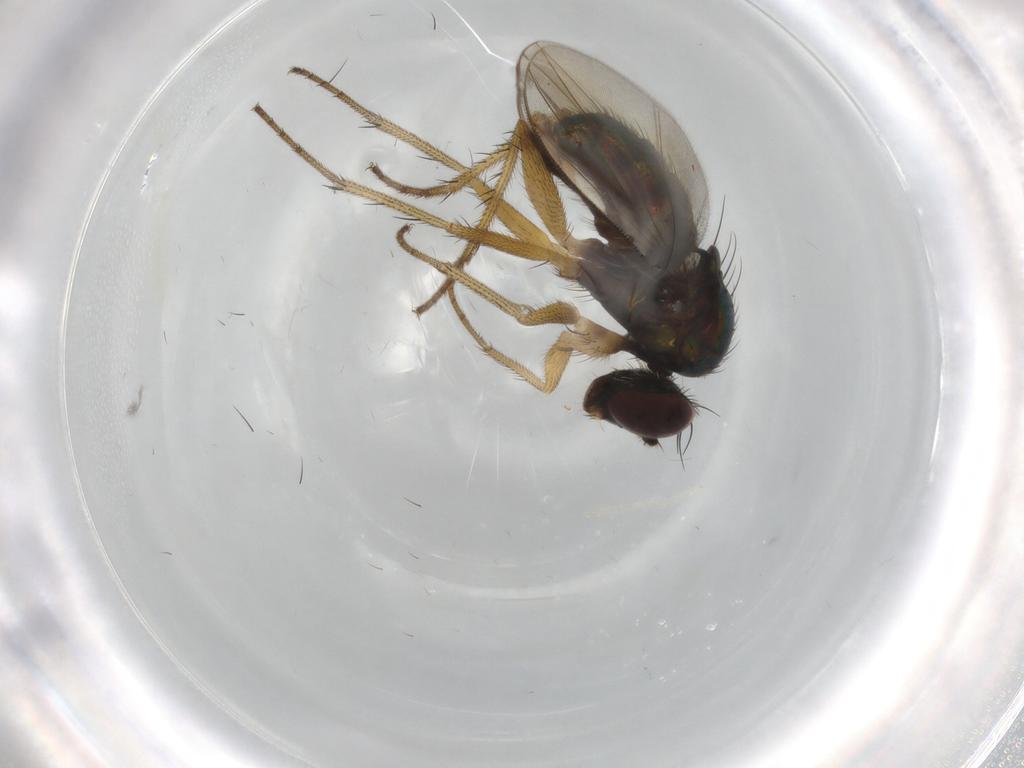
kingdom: Animalia
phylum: Arthropoda
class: Insecta
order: Diptera
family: Dolichopodidae
